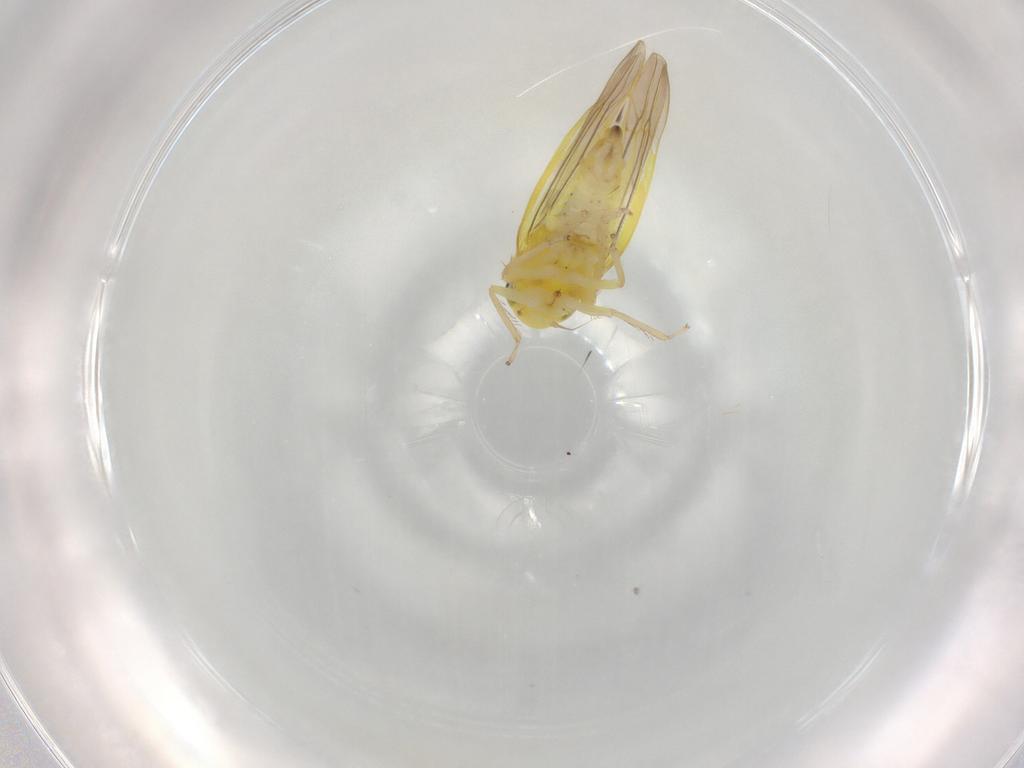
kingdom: Animalia
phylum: Arthropoda
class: Insecta
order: Hemiptera
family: Cicadellidae
